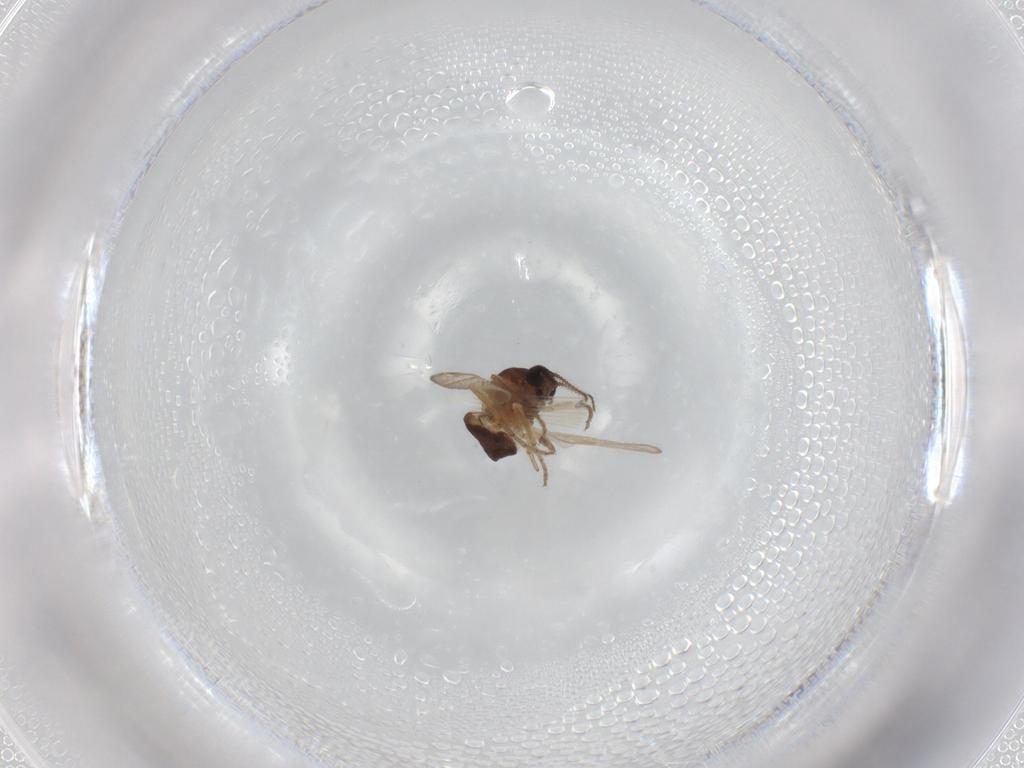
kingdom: Animalia
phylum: Arthropoda
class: Insecta
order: Diptera
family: Ceratopogonidae
